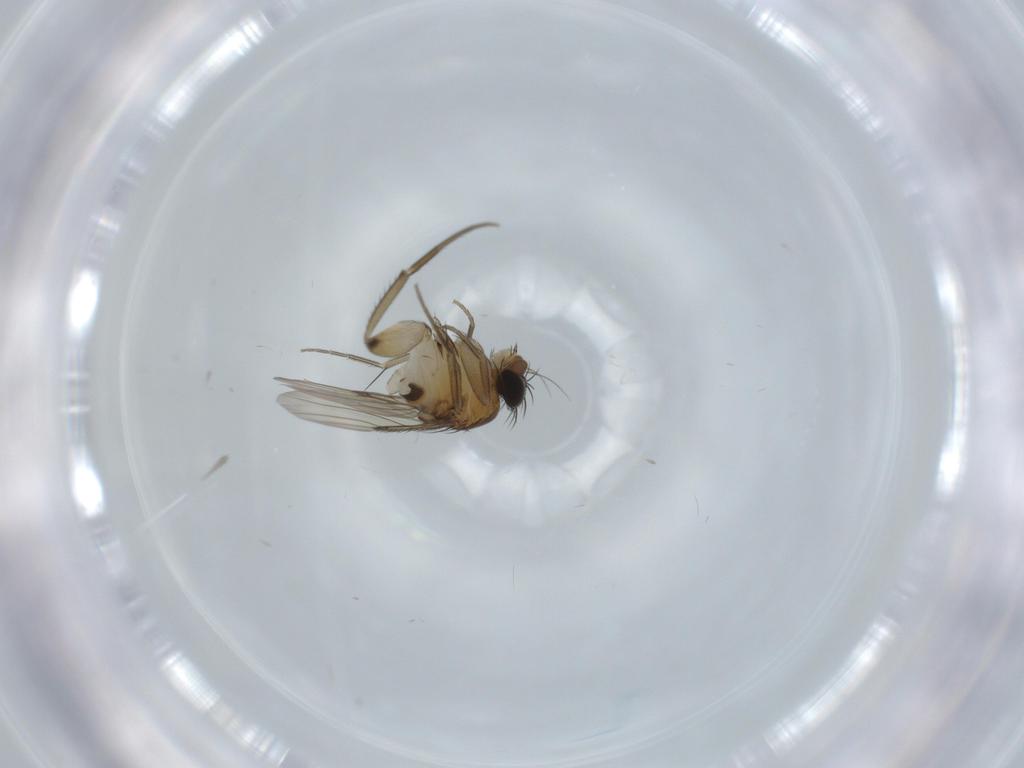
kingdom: Animalia
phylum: Arthropoda
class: Insecta
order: Diptera
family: Phoridae
